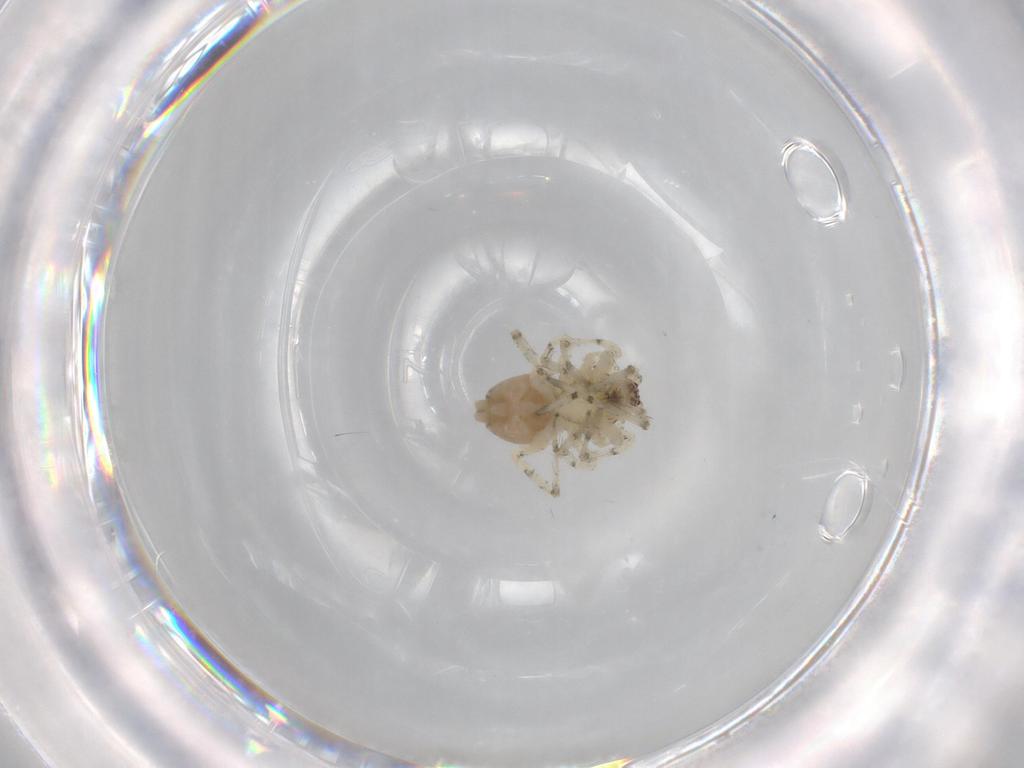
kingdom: Animalia
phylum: Arthropoda
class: Arachnida
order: Araneae
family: Anyphaenidae
